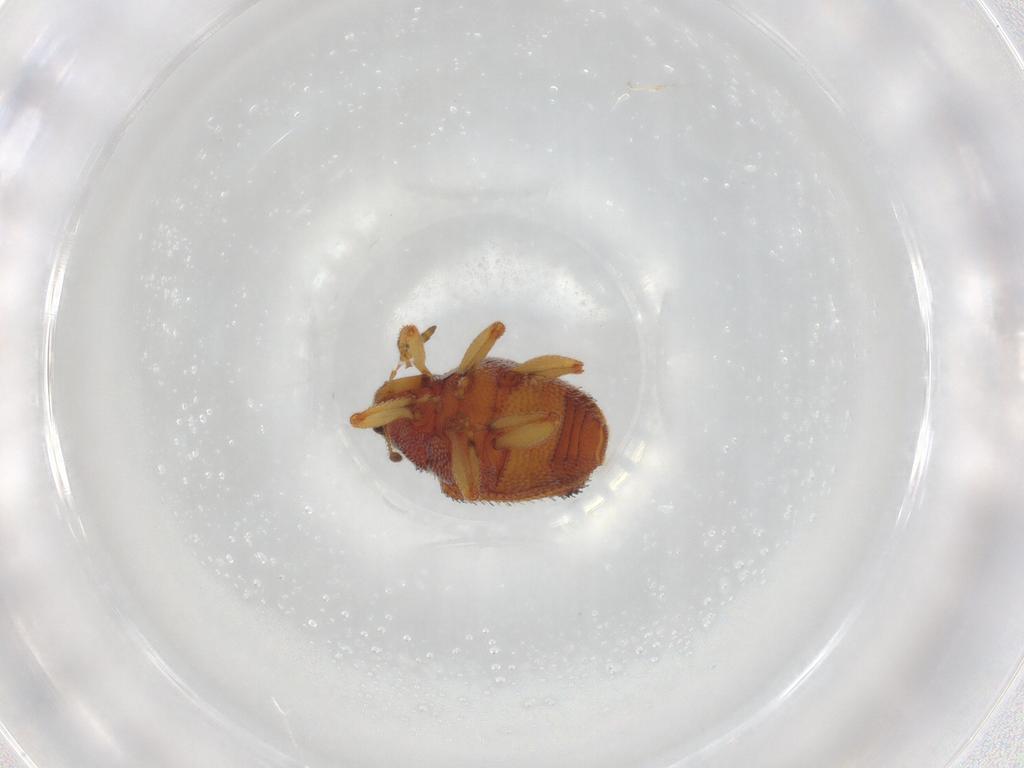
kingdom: Animalia
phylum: Arthropoda
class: Insecta
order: Coleoptera
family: Curculionidae
